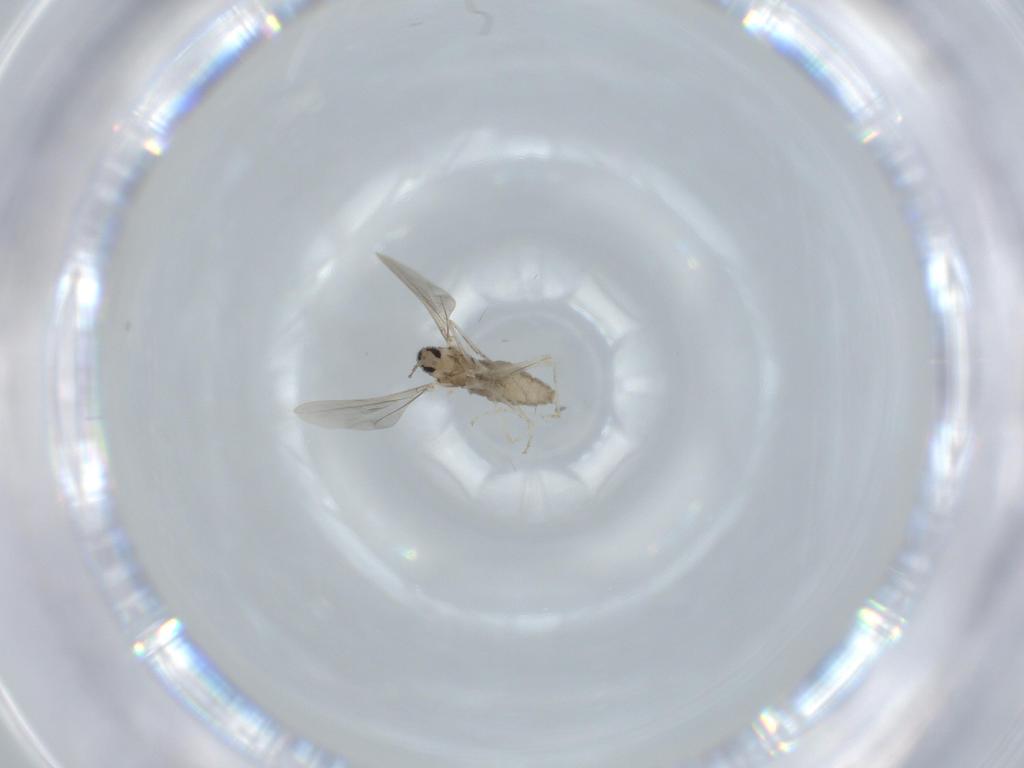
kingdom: Animalia
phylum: Arthropoda
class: Insecta
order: Diptera
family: Cecidomyiidae
